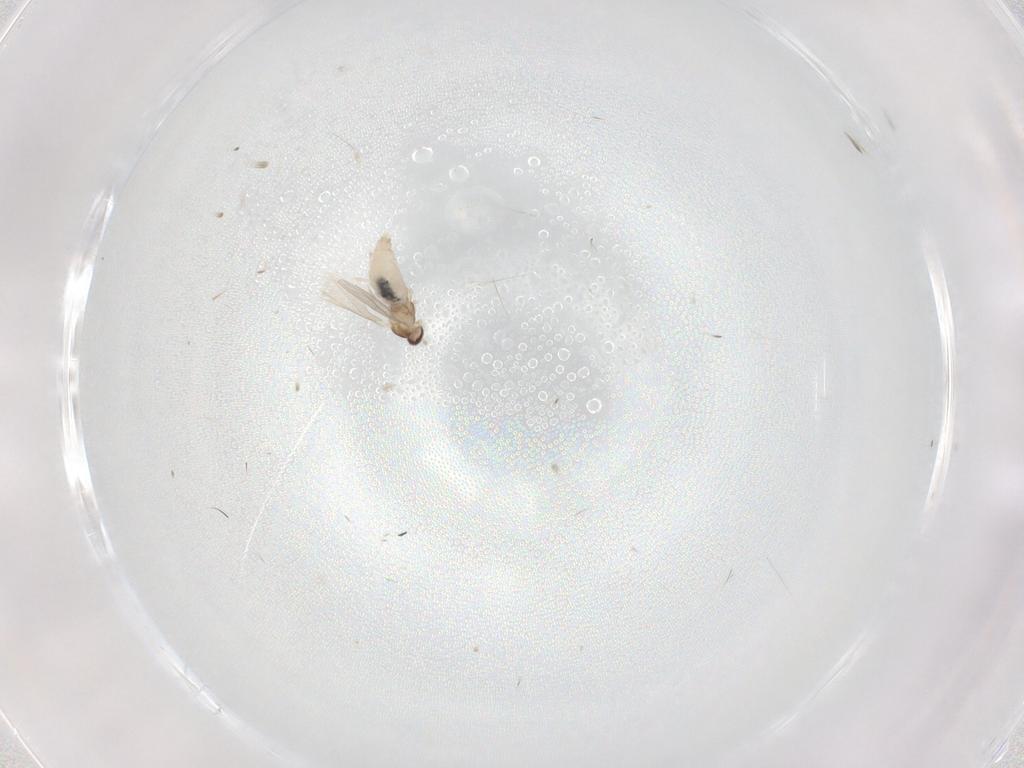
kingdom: Animalia
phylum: Arthropoda
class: Insecta
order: Diptera
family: Cecidomyiidae
